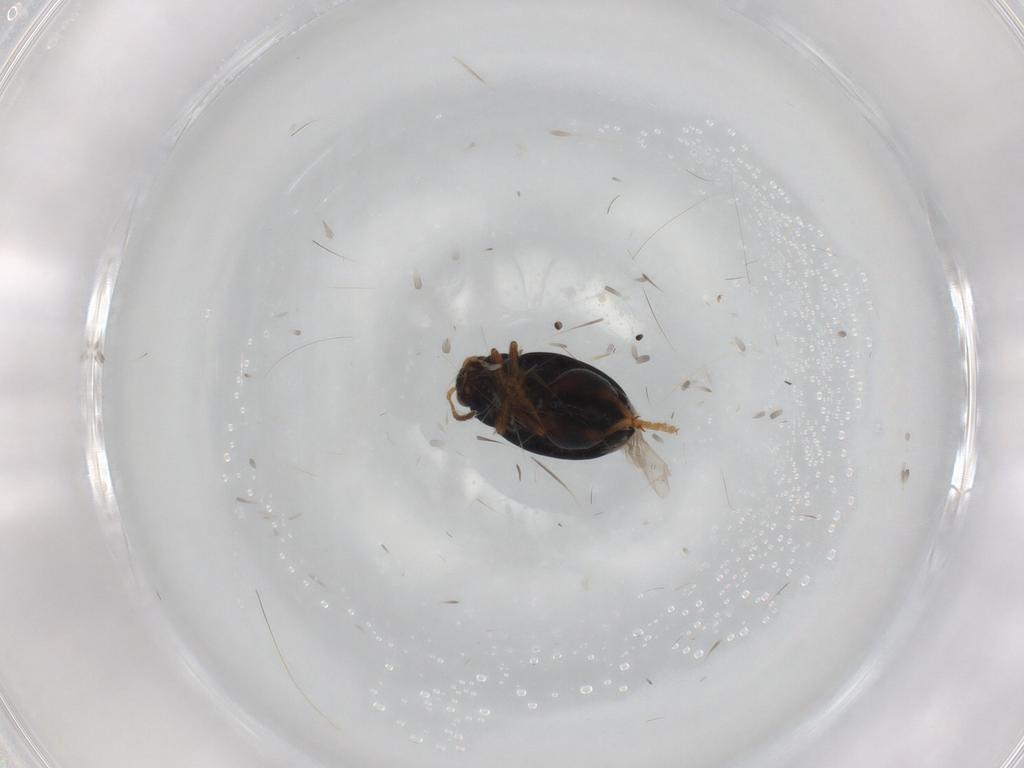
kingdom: Animalia
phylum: Arthropoda
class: Insecta
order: Coleoptera
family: Chrysomelidae
